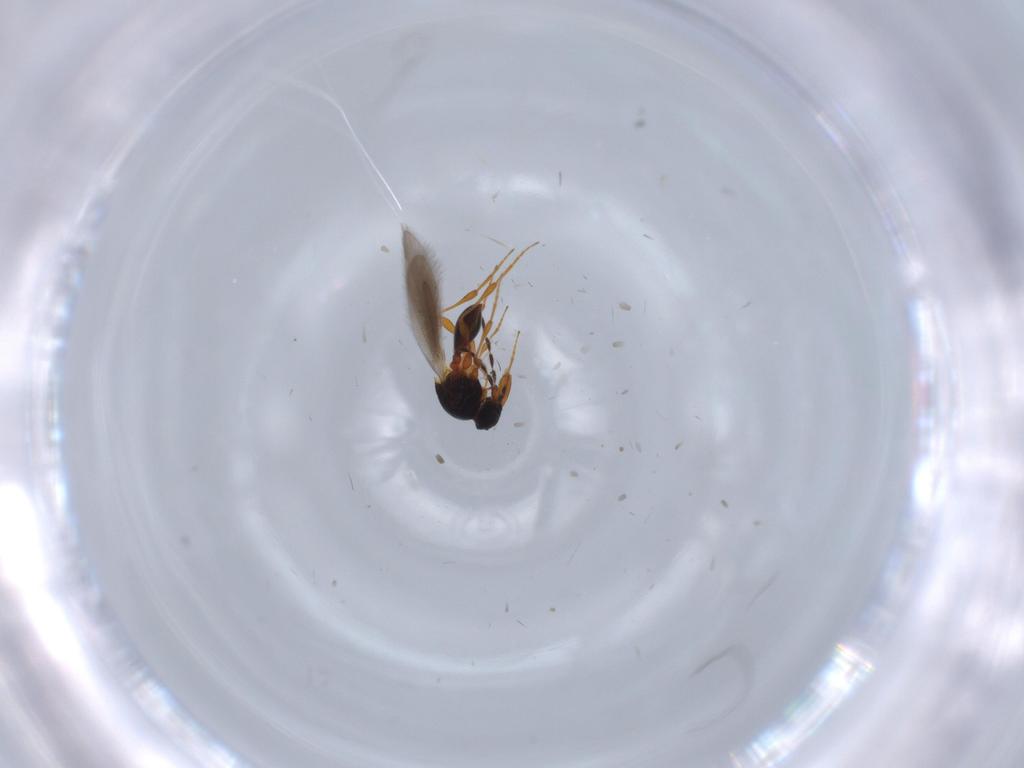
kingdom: Animalia
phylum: Arthropoda
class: Insecta
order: Hymenoptera
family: Platygastridae
